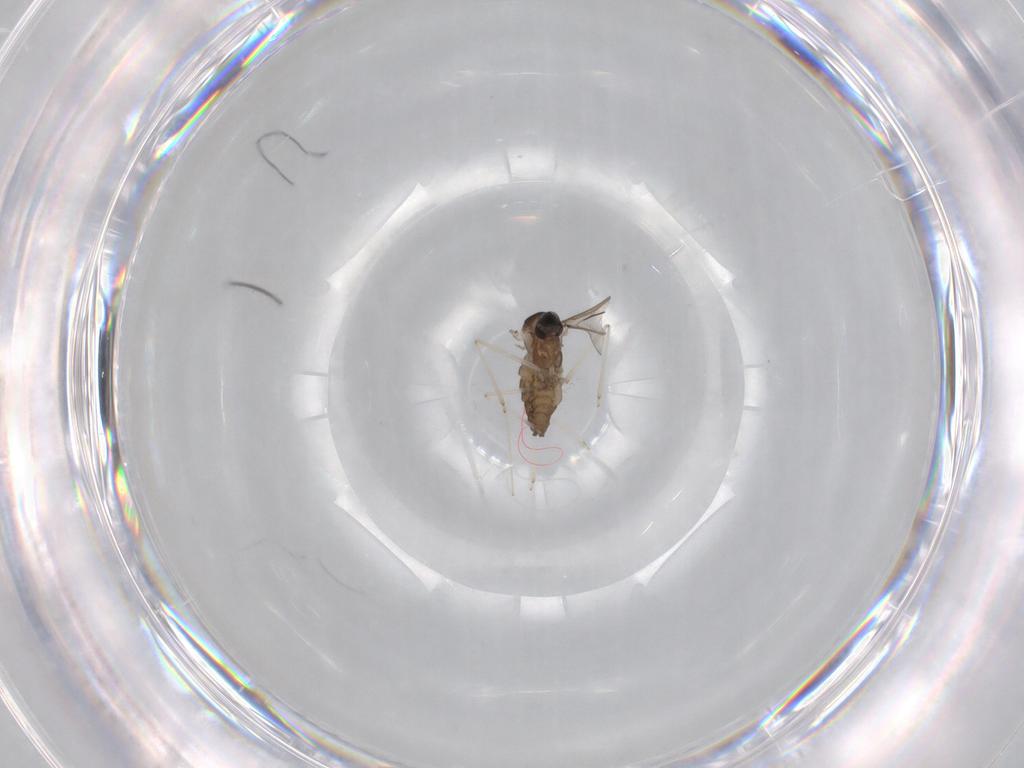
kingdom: Animalia
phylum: Arthropoda
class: Insecta
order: Diptera
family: Cecidomyiidae
